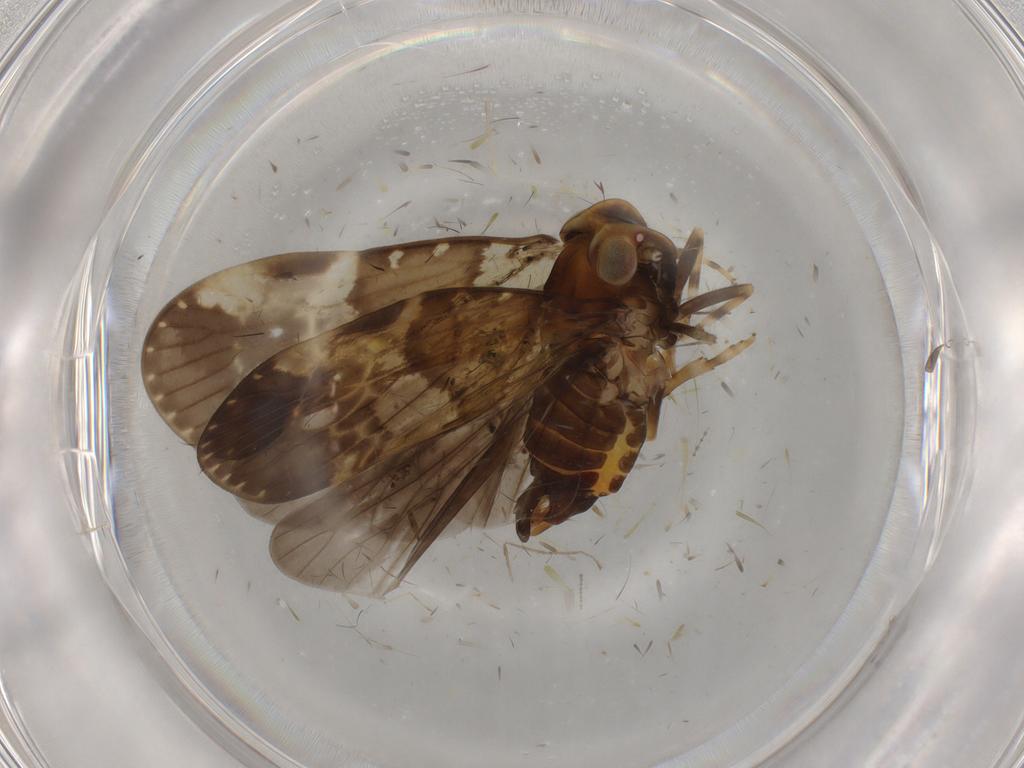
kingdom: Animalia
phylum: Arthropoda
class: Insecta
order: Hemiptera
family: Cixiidae
